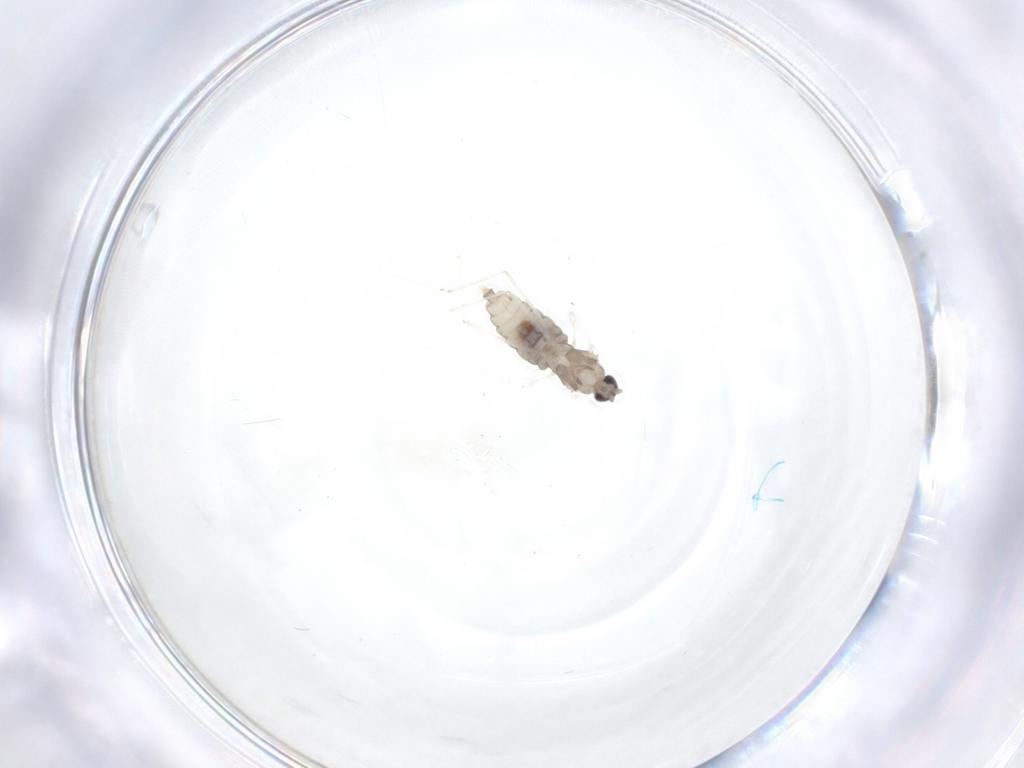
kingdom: Animalia
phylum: Arthropoda
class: Insecta
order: Diptera
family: Cecidomyiidae
